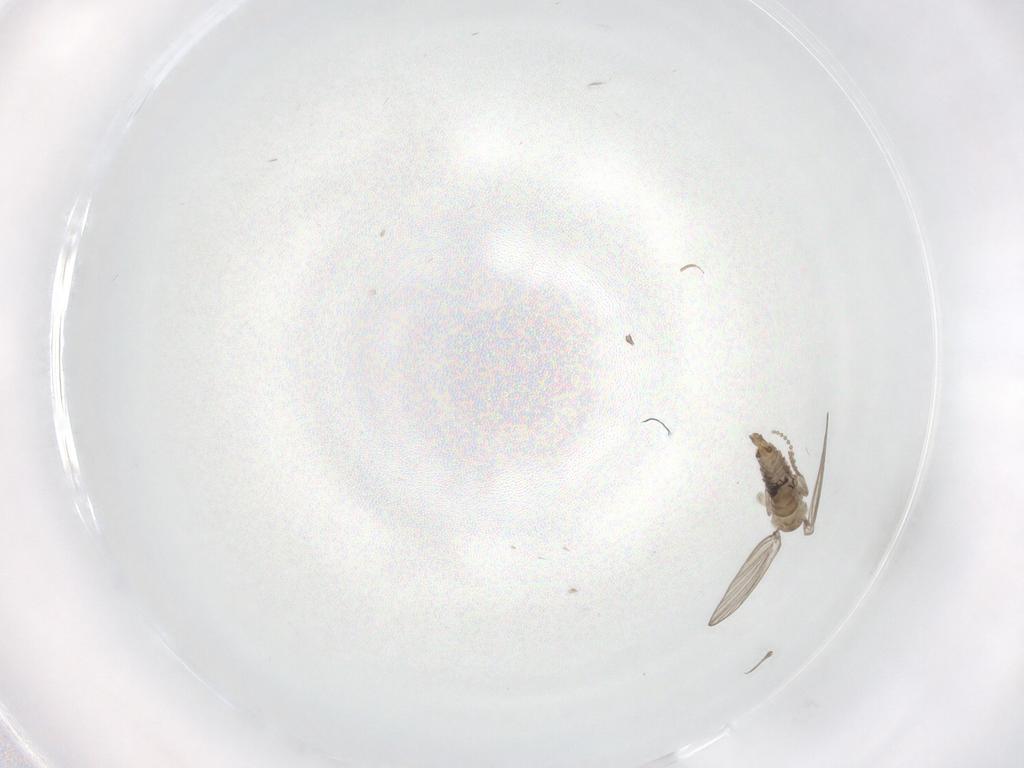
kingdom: Animalia
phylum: Arthropoda
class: Insecta
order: Diptera
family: Psychodidae
